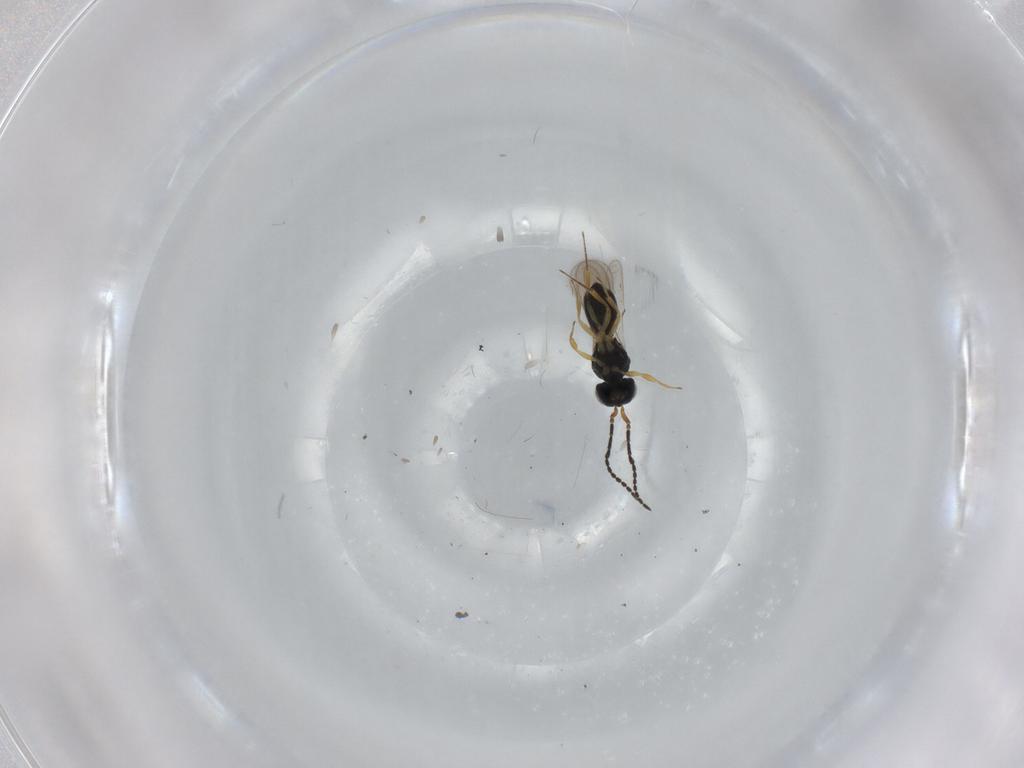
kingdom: Animalia
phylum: Arthropoda
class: Insecta
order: Hymenoptera
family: Scelionidae
